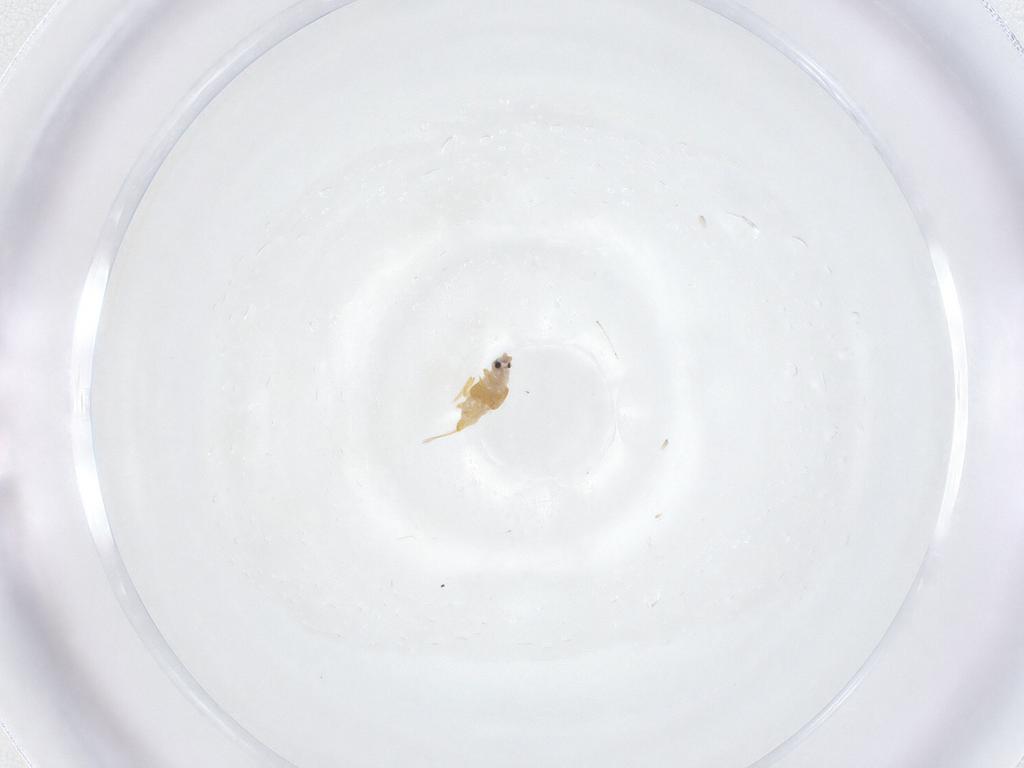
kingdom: Animalia
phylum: Arthropoda
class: Insecta
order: Diptera
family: Cecidomyiidae
